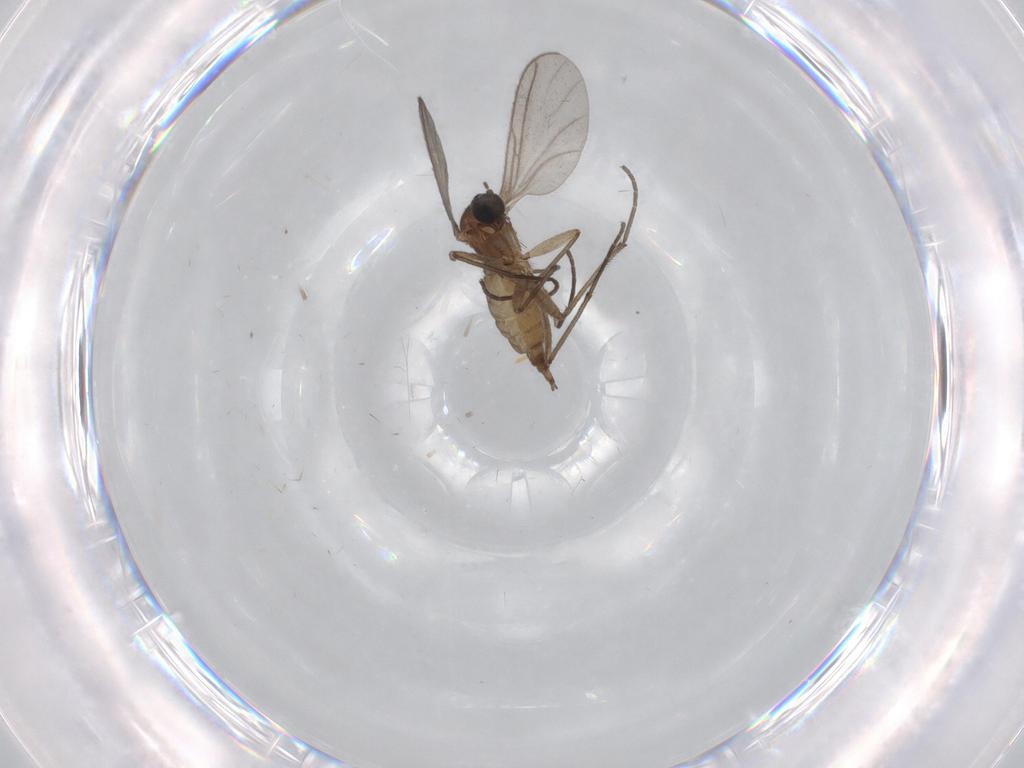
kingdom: Animalia
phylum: Arthropoda
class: Insecta
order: Diptera
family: Sciaridae
